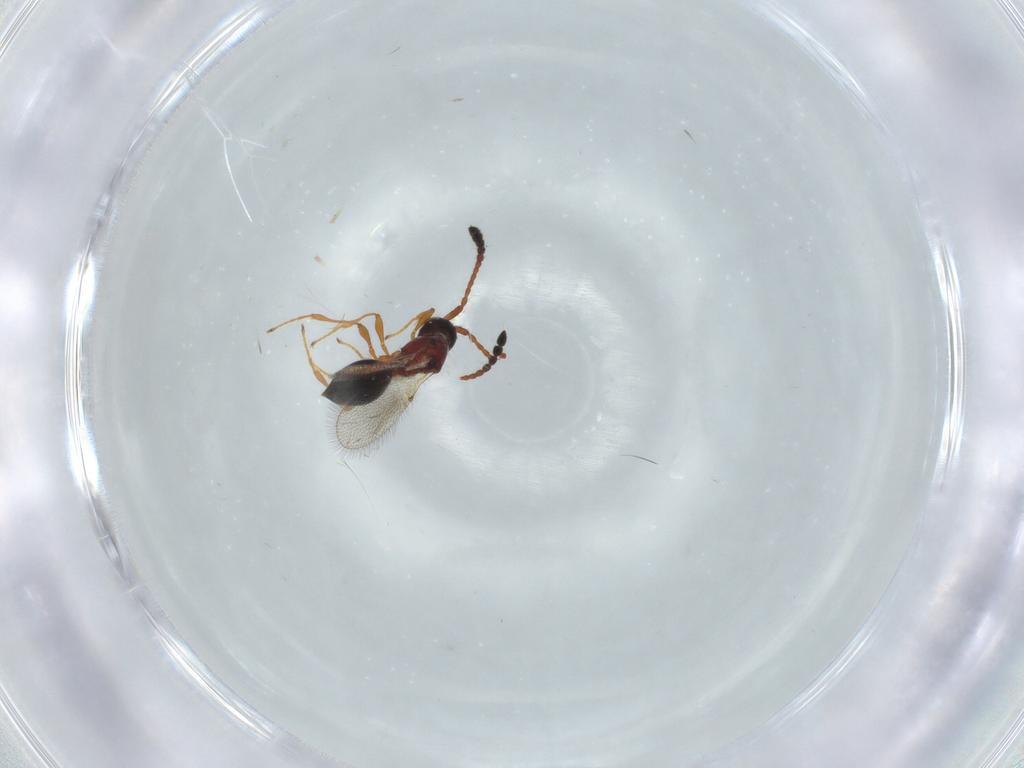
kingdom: Animalia
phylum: Arthropoda
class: Insecta
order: Hymenoptera
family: Diapriidae
